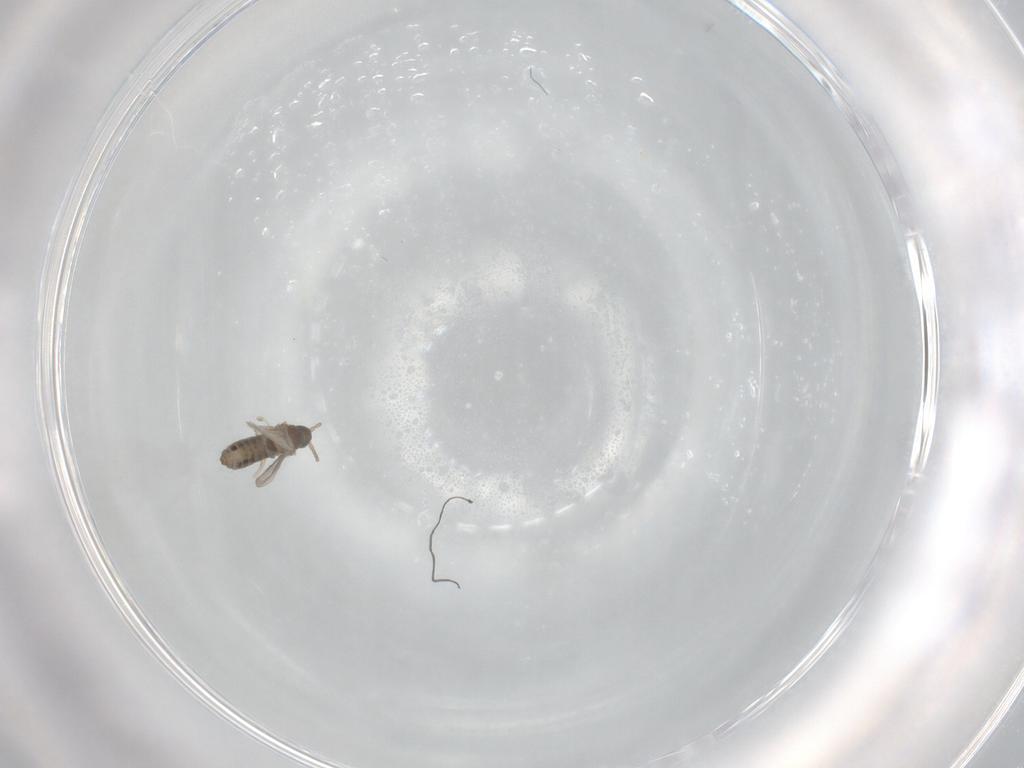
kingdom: Animalia
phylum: Arthropoda
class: Insecta
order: Diptera
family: Cecidomyiidae
